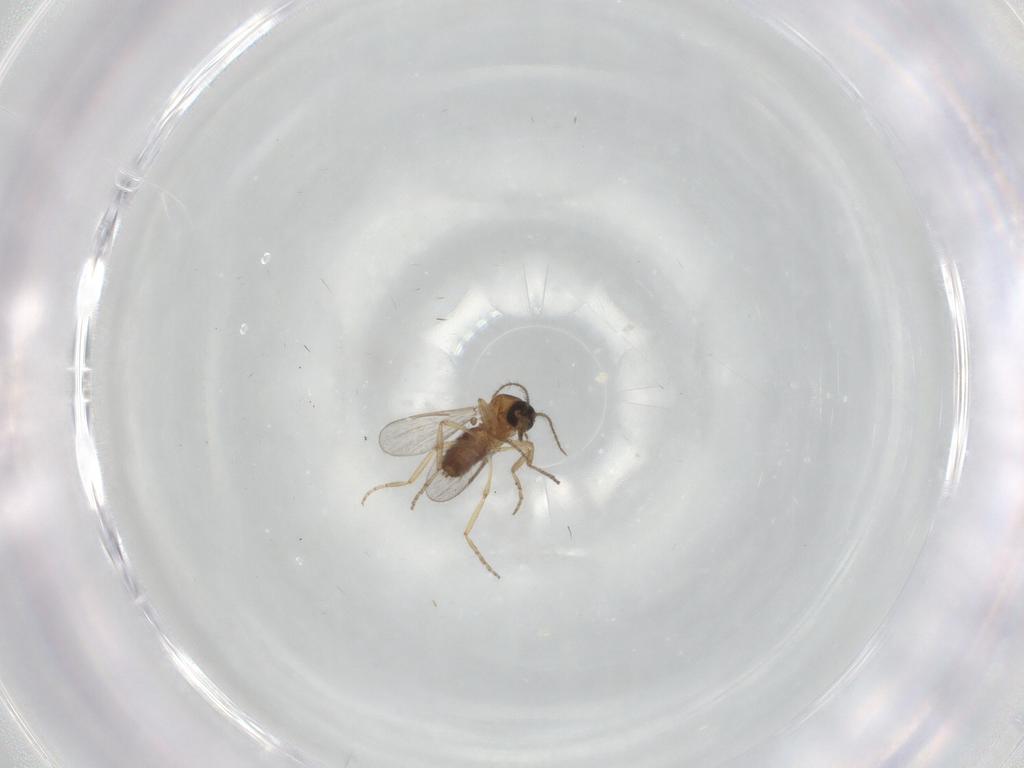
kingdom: Animalia
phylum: Arthropoda
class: Insecta
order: Diptera
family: Ceratopogonidae
